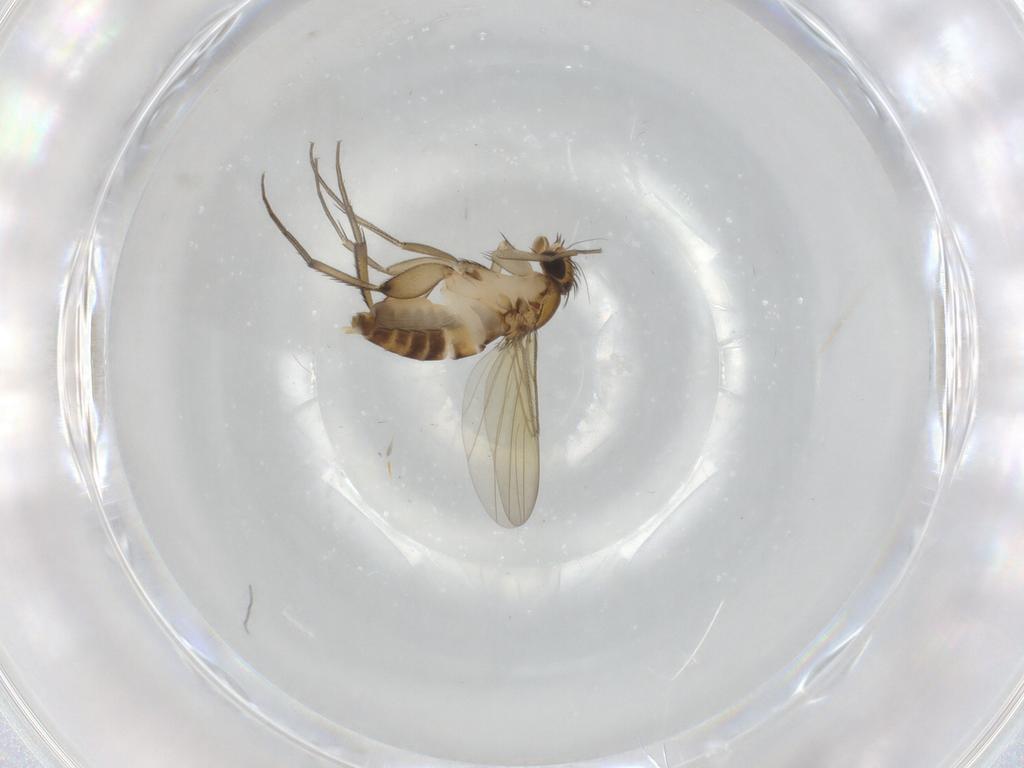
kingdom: Animalia
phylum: Arthropoda
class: Insecta
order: Diptera
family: Phoridae
